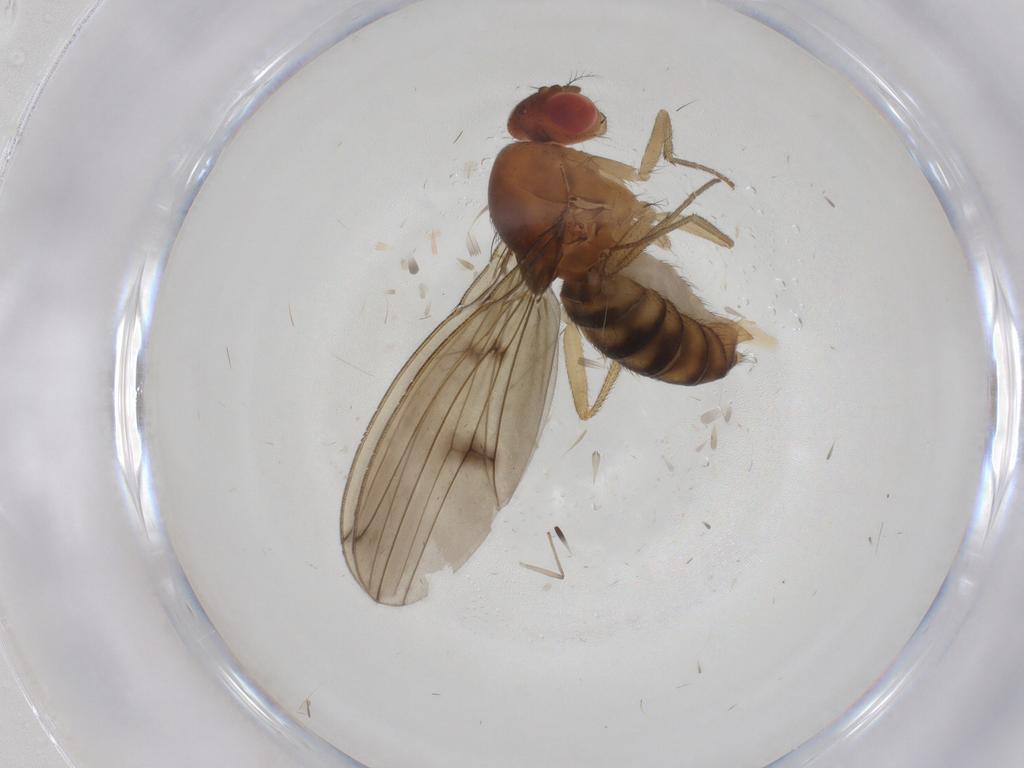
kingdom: Animalia
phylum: Arthropoda
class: Insecta
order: Diptera
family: Drosophilidae
